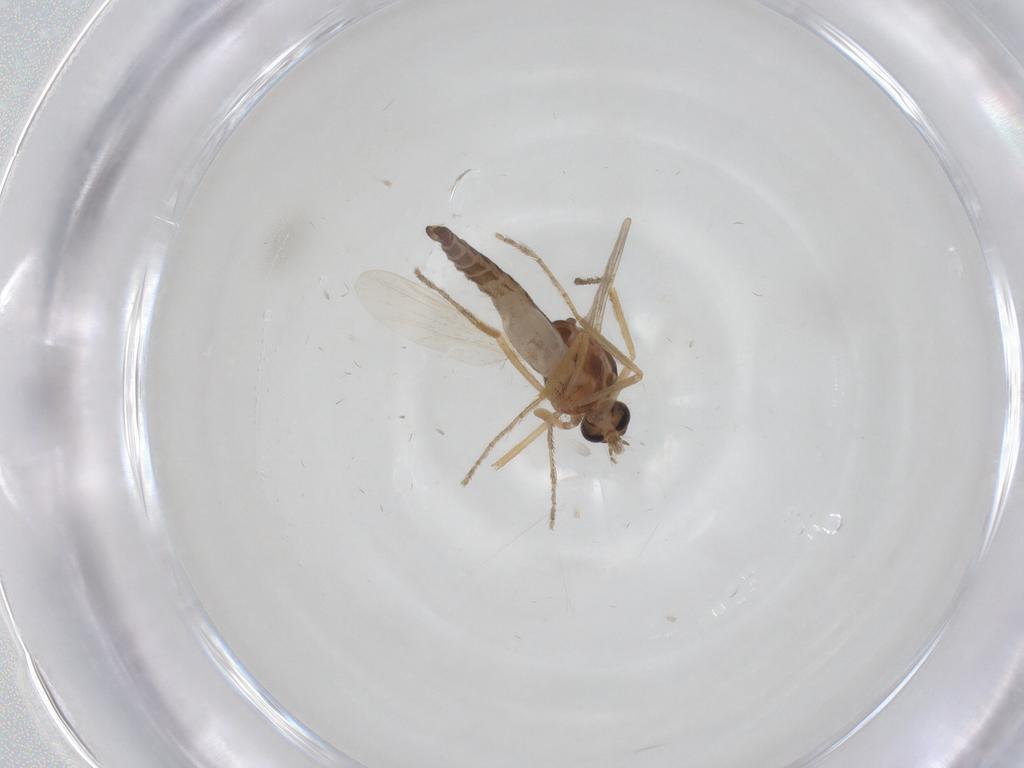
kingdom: Animalia
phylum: Arthropoda
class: Insecta
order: Diptera
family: Ceratopogonidae
